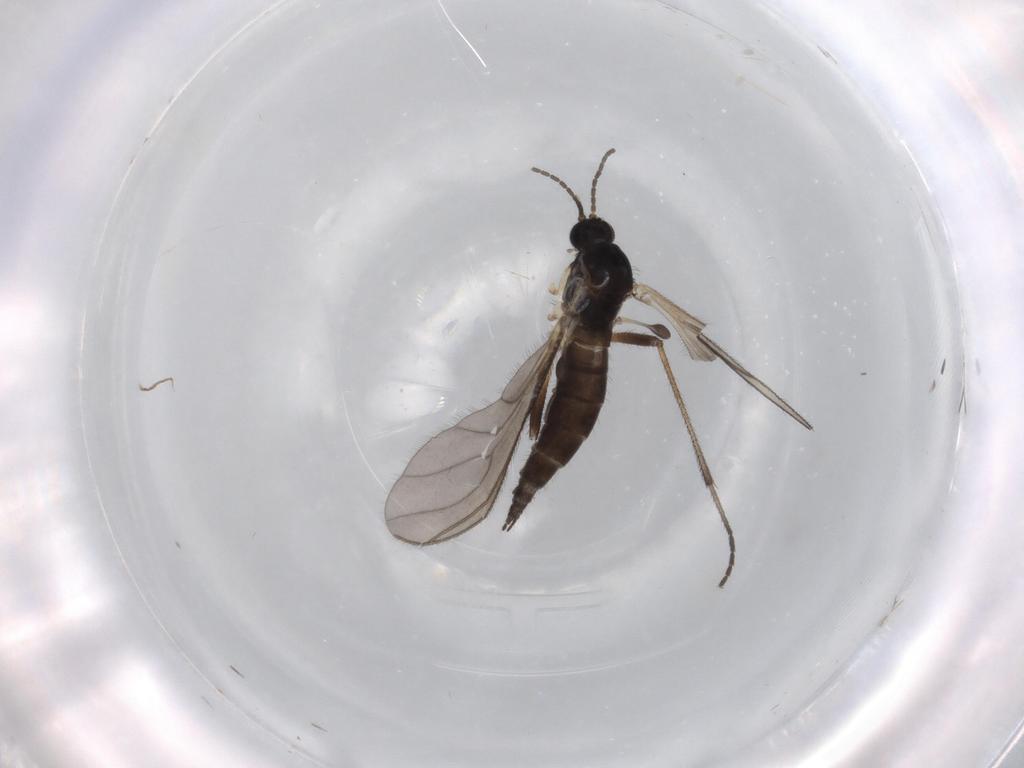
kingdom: Animalia
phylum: Arthropoda
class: Insecta
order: Diptera
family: Sciaridae
